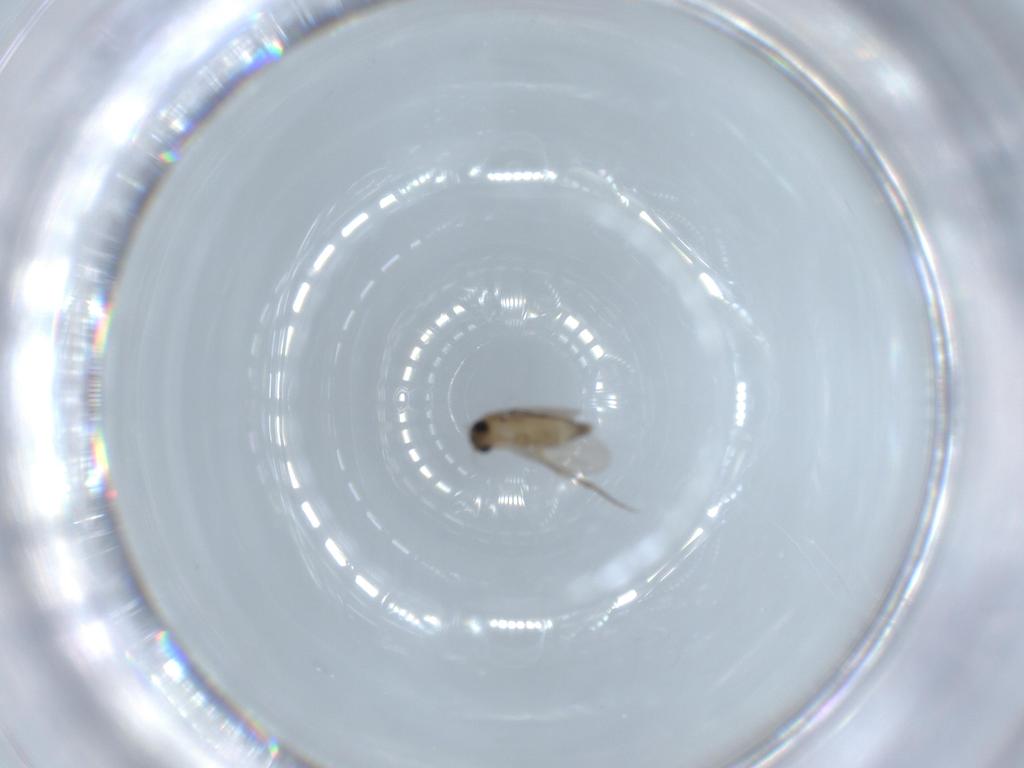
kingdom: Animalia
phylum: Arthropoda
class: Insecta
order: Diptera
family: Phoridae
